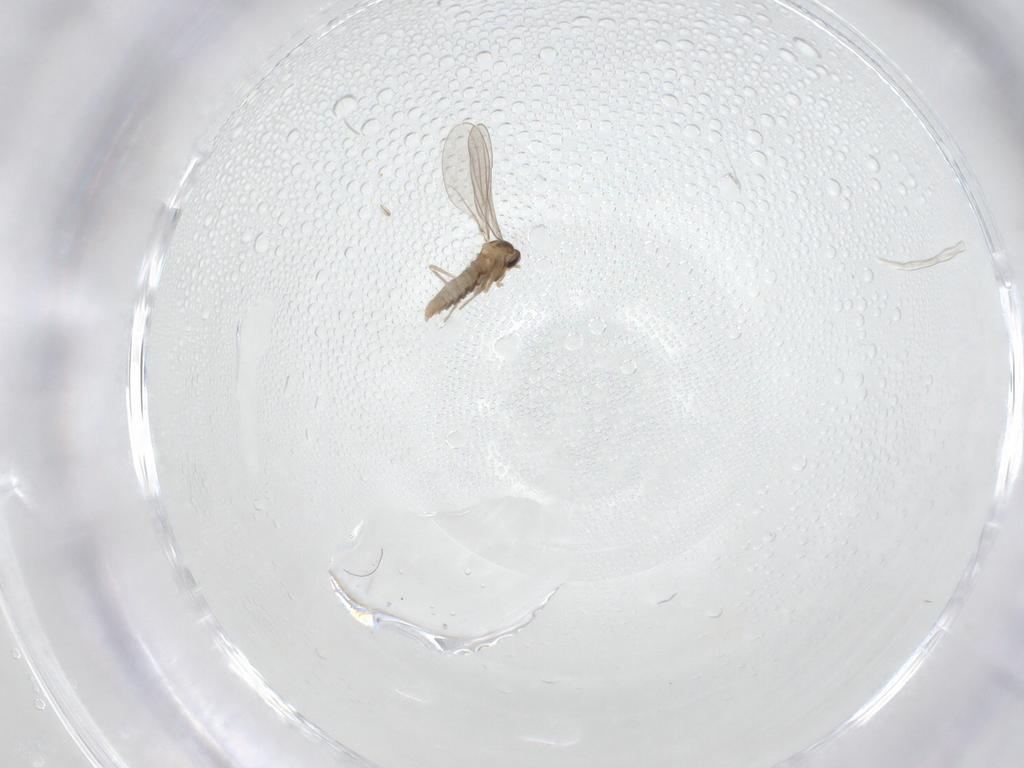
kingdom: Animalia
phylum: Arthropoda
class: Insecta
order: Diptera
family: Cecidomyiidae
